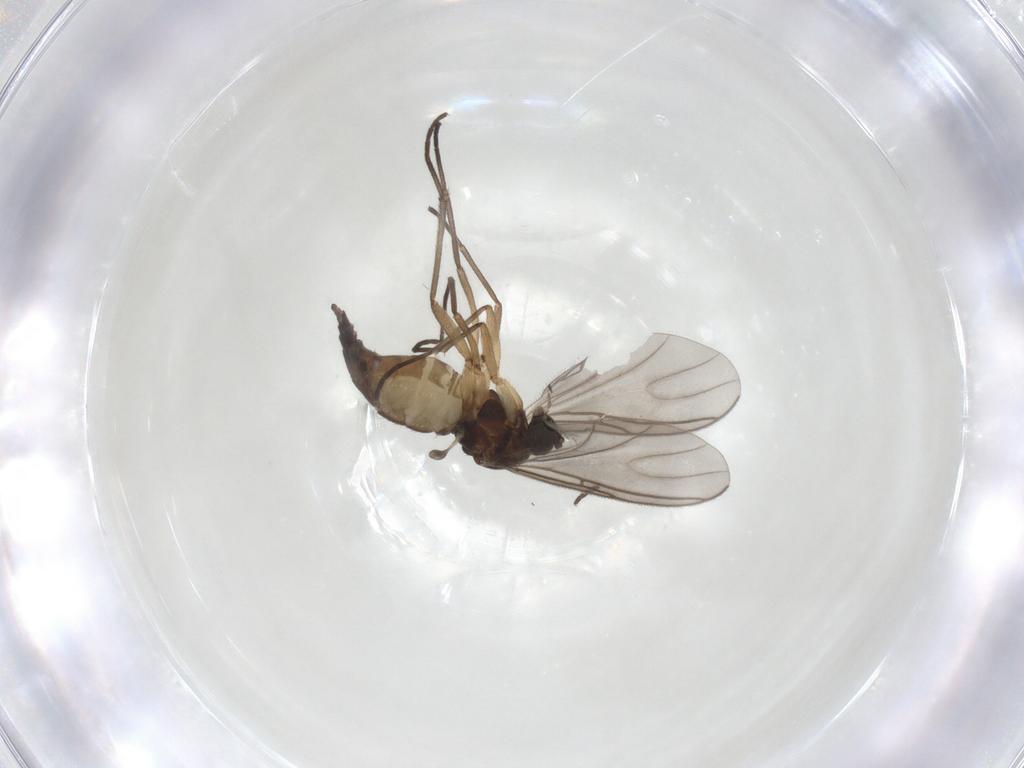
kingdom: Animalia
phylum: Arthropoda
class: Insecta
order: Diptera
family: Sciaridae
